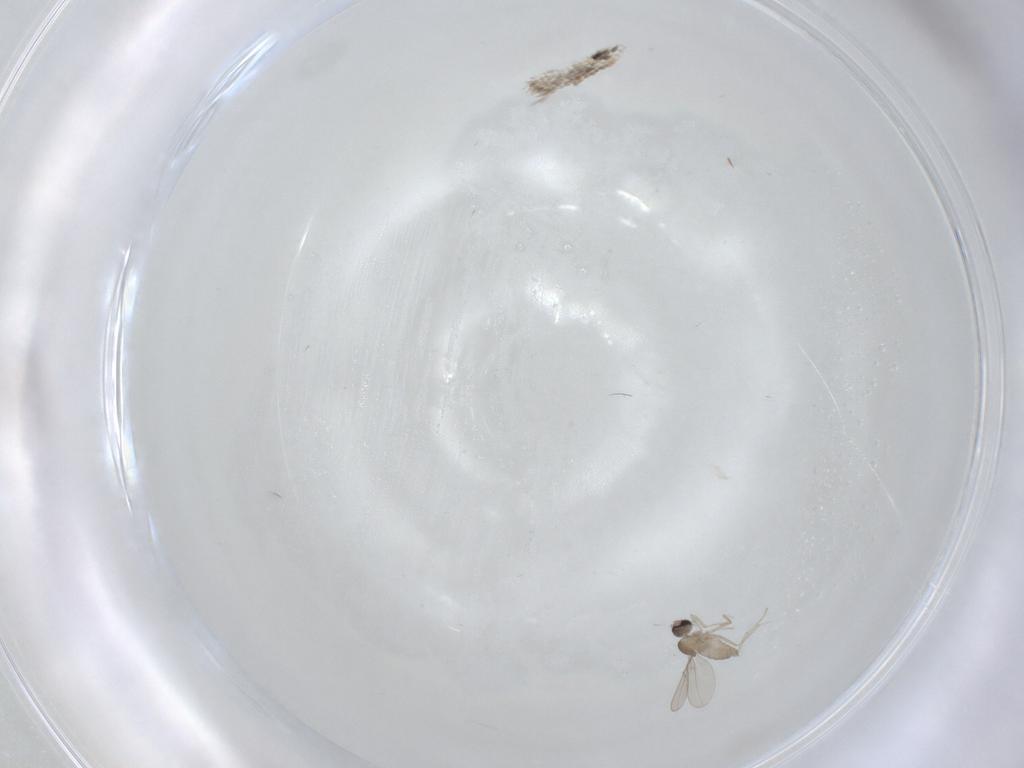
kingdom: Animalia
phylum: Arthropoda
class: Insecta
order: Diptera
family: Cecidomyiidae
